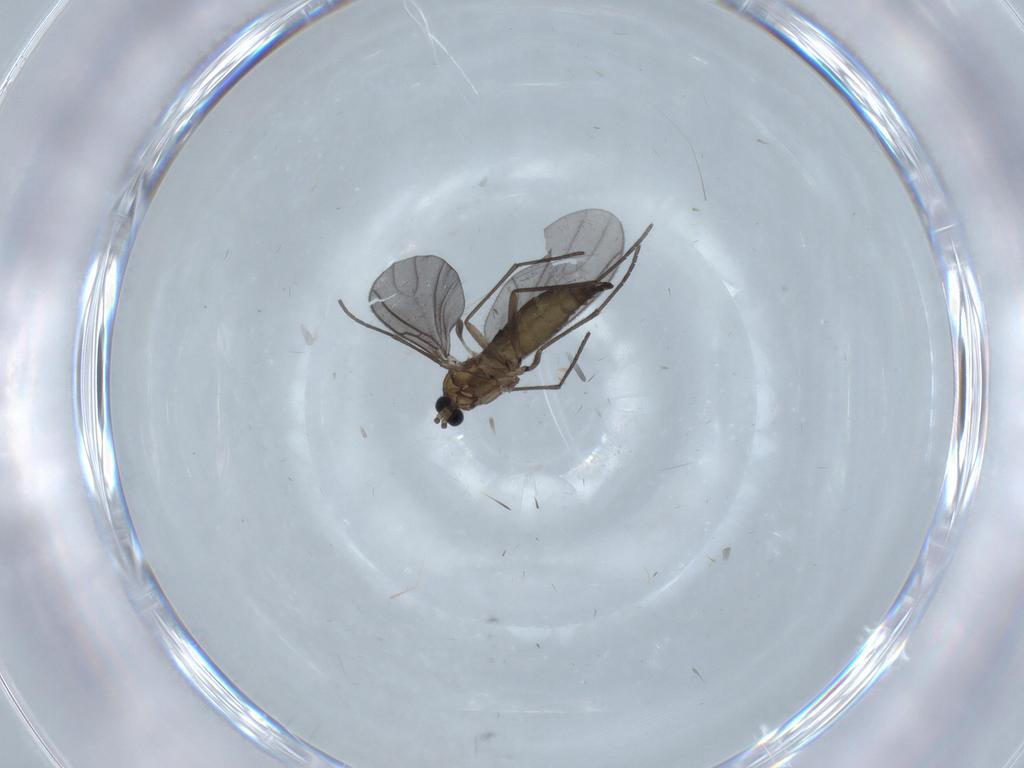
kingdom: Animalia
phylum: Arthropoda
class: Insecta
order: Diptera
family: Sciaridae
